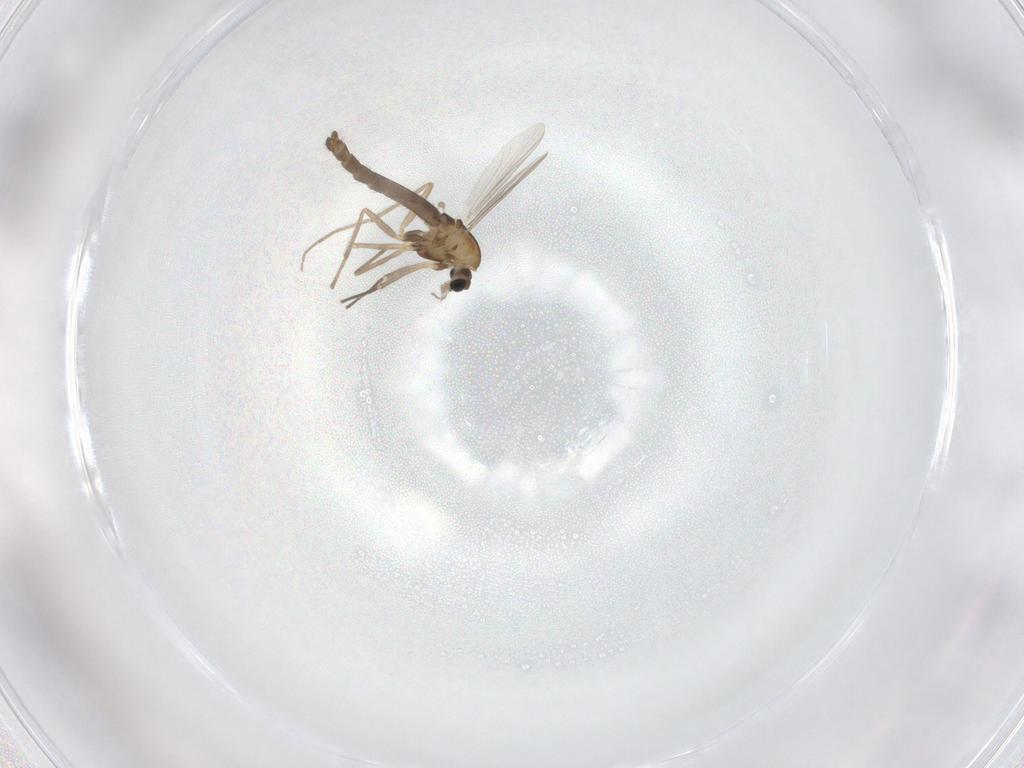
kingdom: Animalia
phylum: Arthropoda
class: Insecta
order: Diptera
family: Chironomidae
